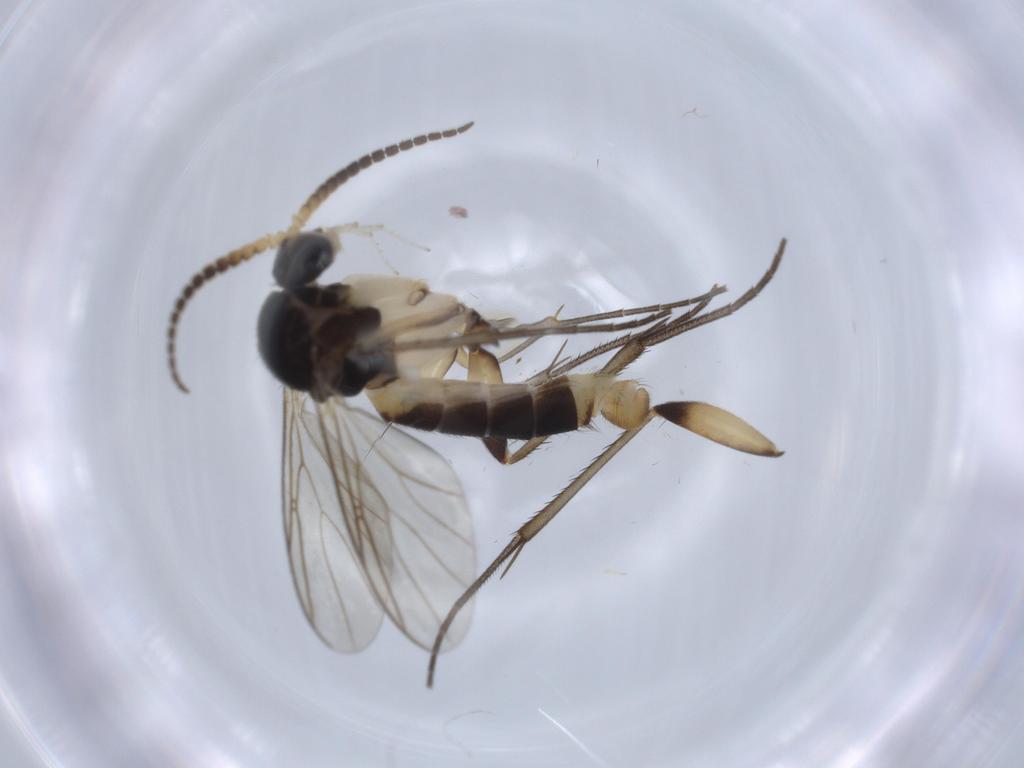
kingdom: Animalia
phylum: Arthropoda
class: Insecta
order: Diptera
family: Mycetophilidae
